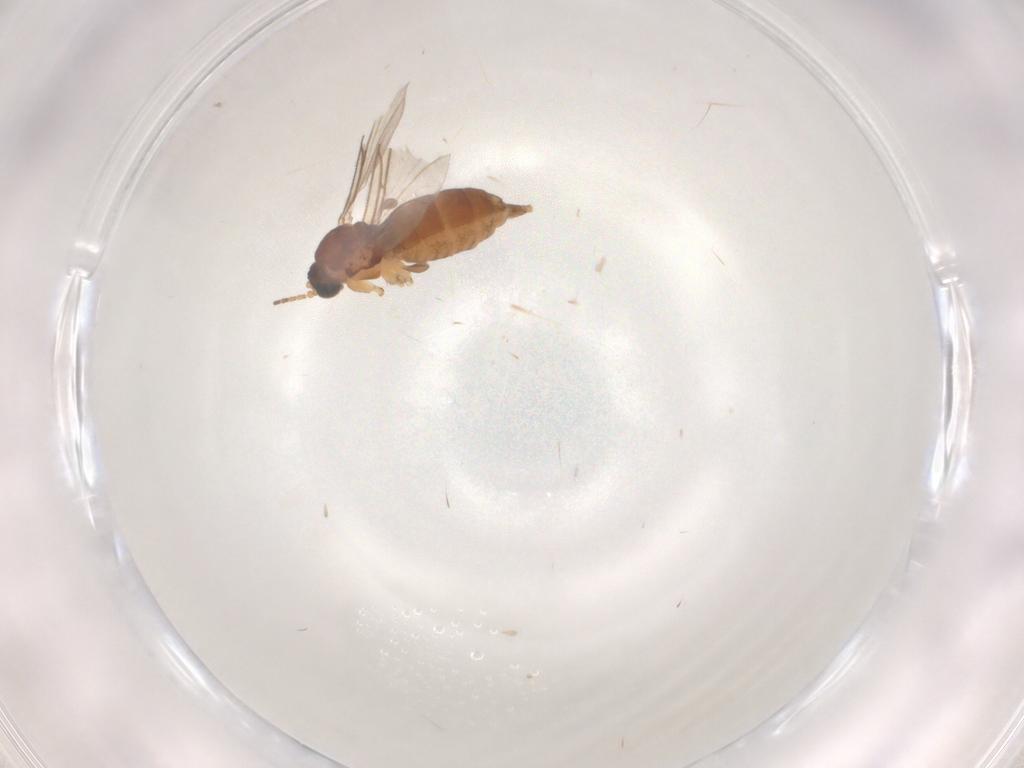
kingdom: Animalia
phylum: Arthropoda
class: Insecta
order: Diptera
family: Sciaridae
